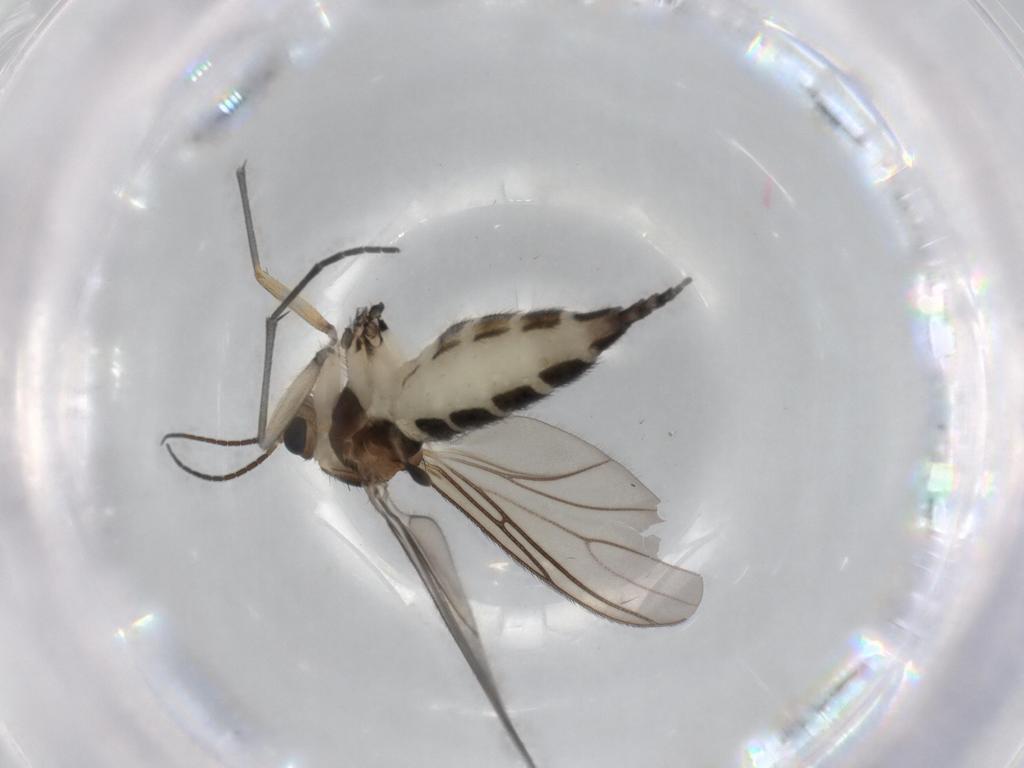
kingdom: Animalia
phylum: Arthropoda
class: Insecta
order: Diptera
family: Sciaridae
